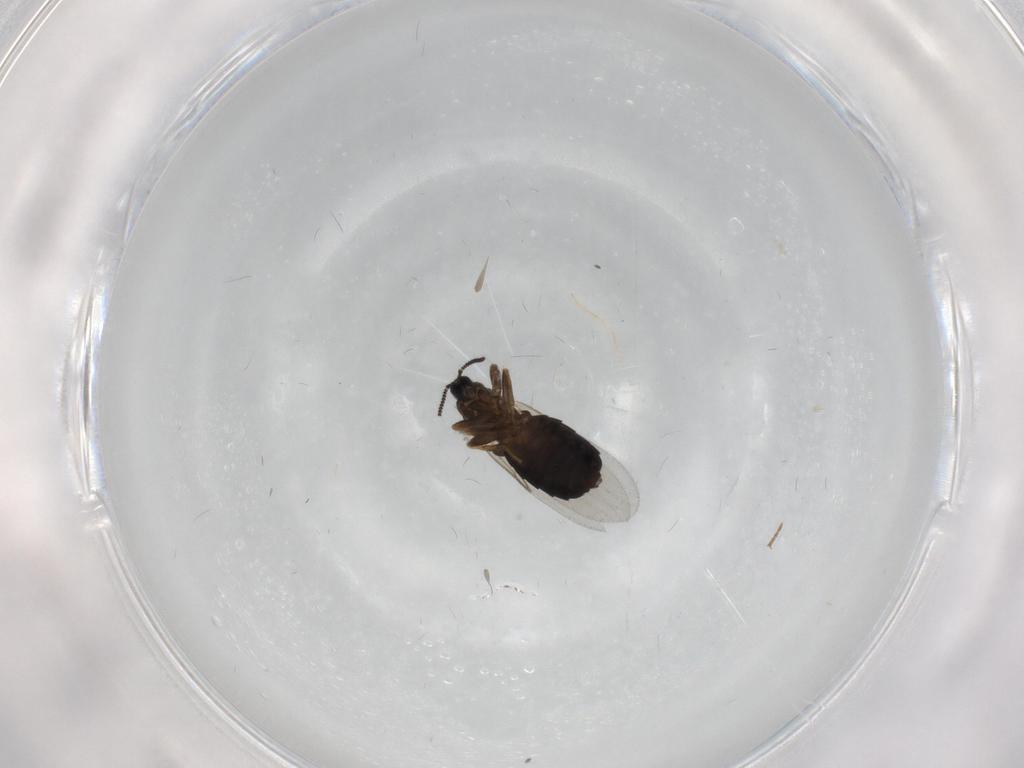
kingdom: Animalia
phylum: Arthropoda
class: Insecta
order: Diptera
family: Scatopsidae
